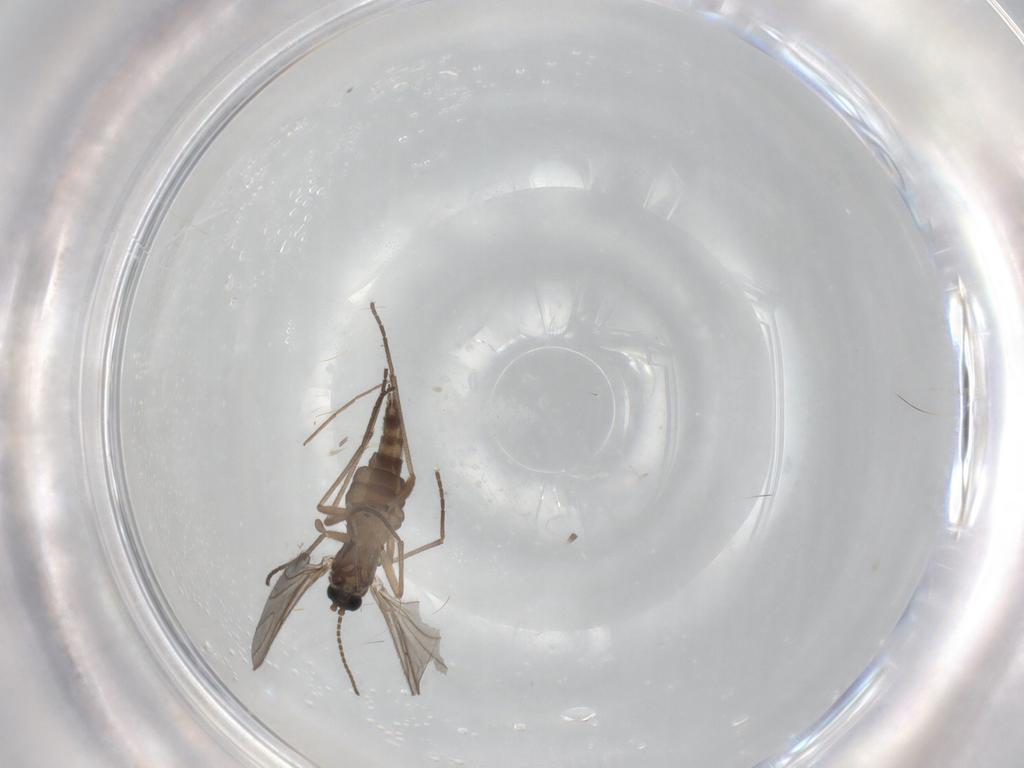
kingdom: Animalia
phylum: Arthropoda
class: Insecta
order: Diptera
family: Sciaridae
